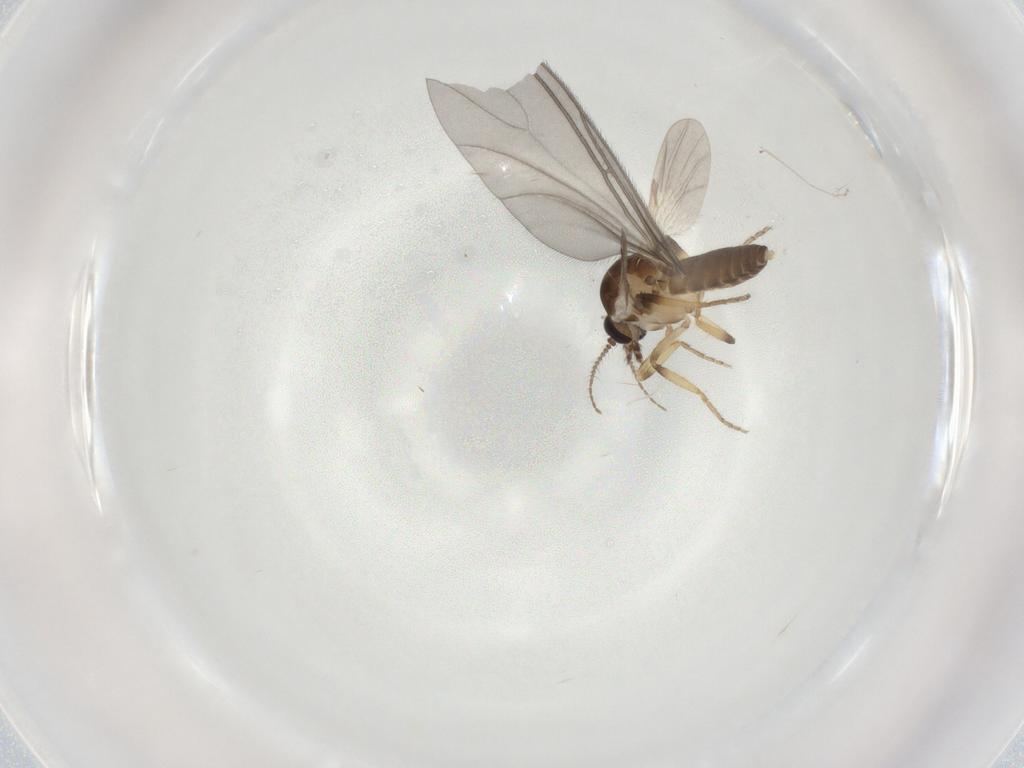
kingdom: Animalia
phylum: Arthropoda
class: Insecta
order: Diptera
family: Ceratopogonidae
